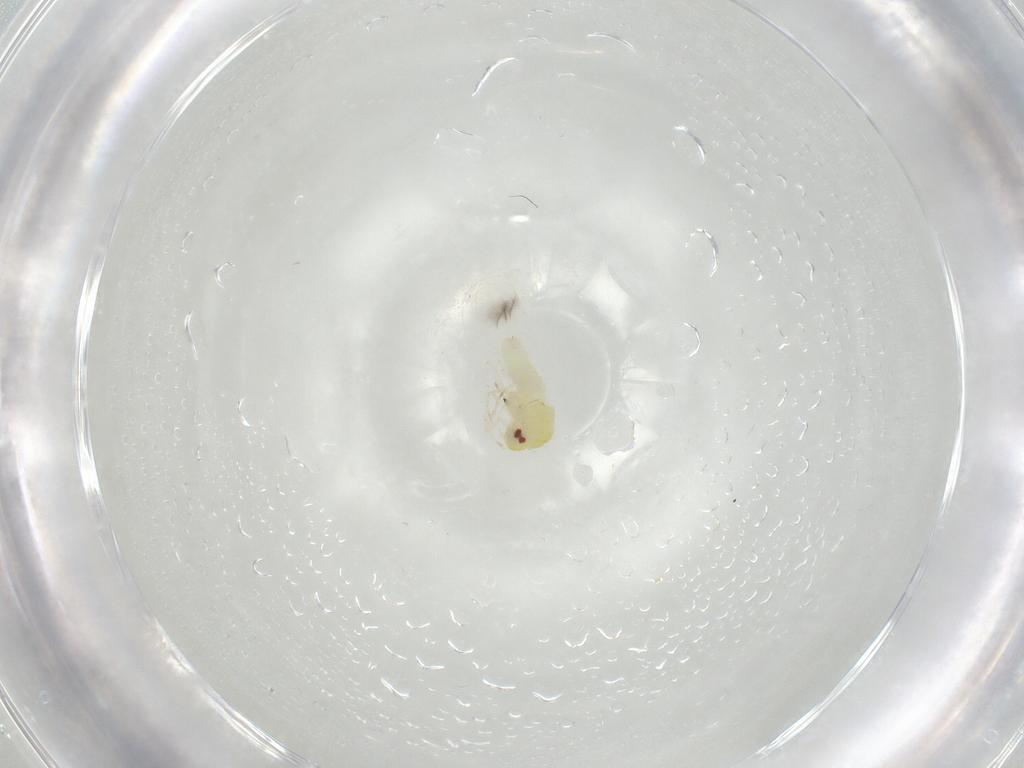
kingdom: Animalia
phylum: Arthropoda
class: Insecta
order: Hemiptera
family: Aleyrodidae
